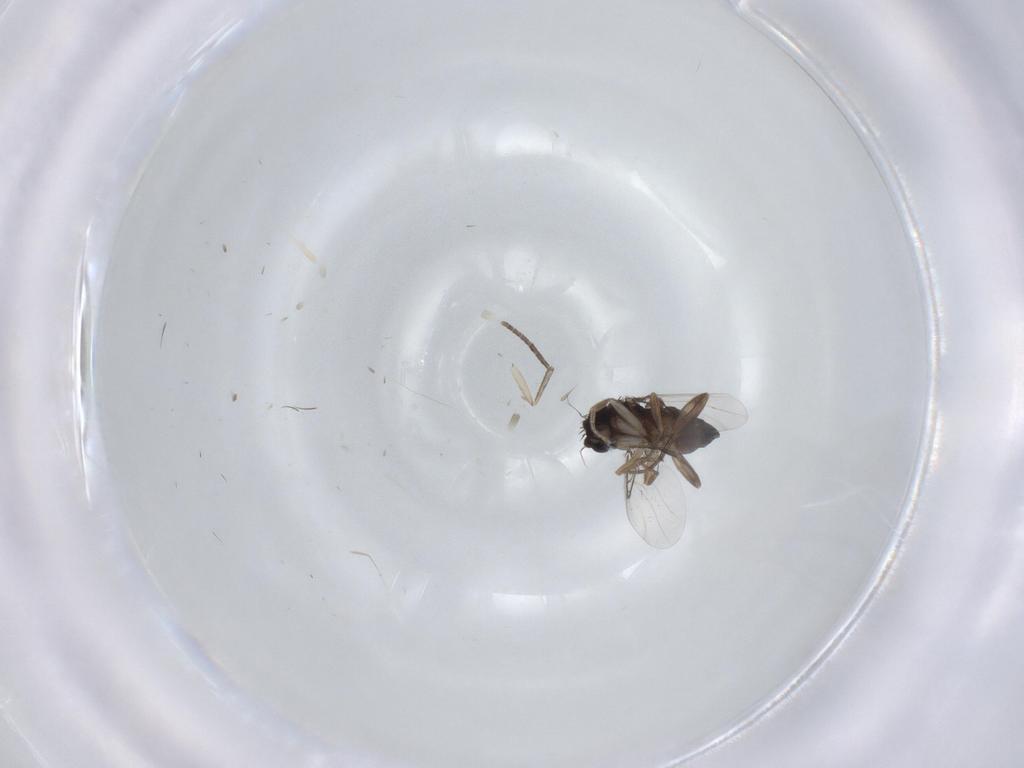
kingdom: Animalia
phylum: Arthropoda
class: Insecta
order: Diptera
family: Phoridae
